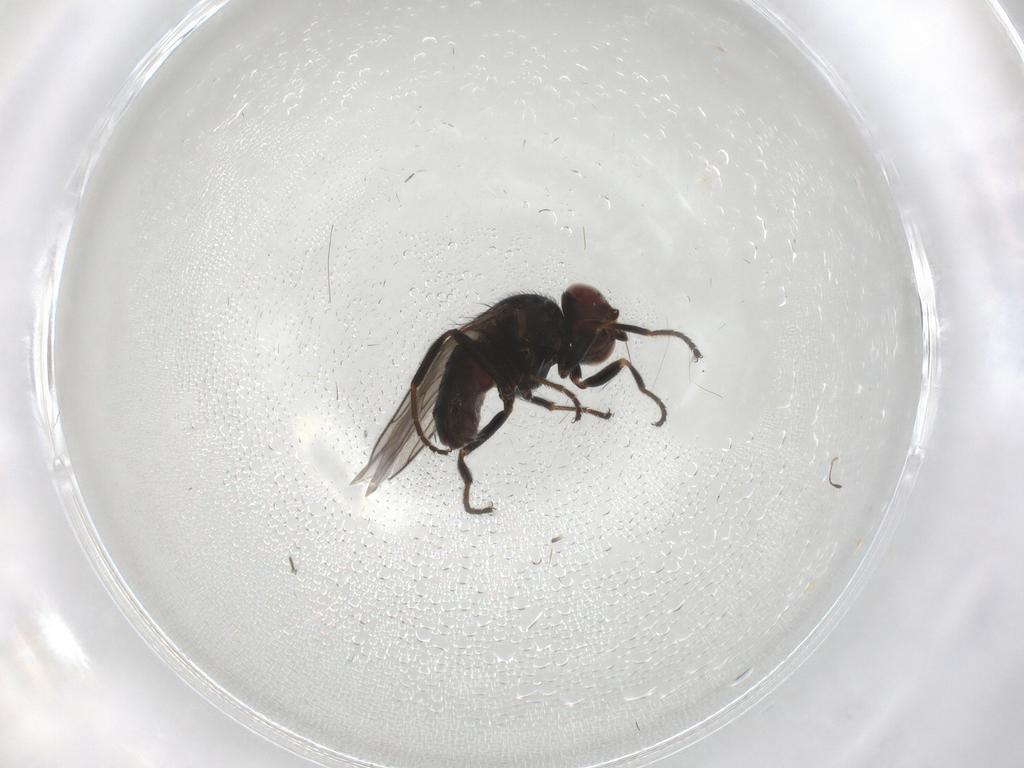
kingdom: Animalia
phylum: Arthropoda
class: Insecta
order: Diptera
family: Chloropidae
